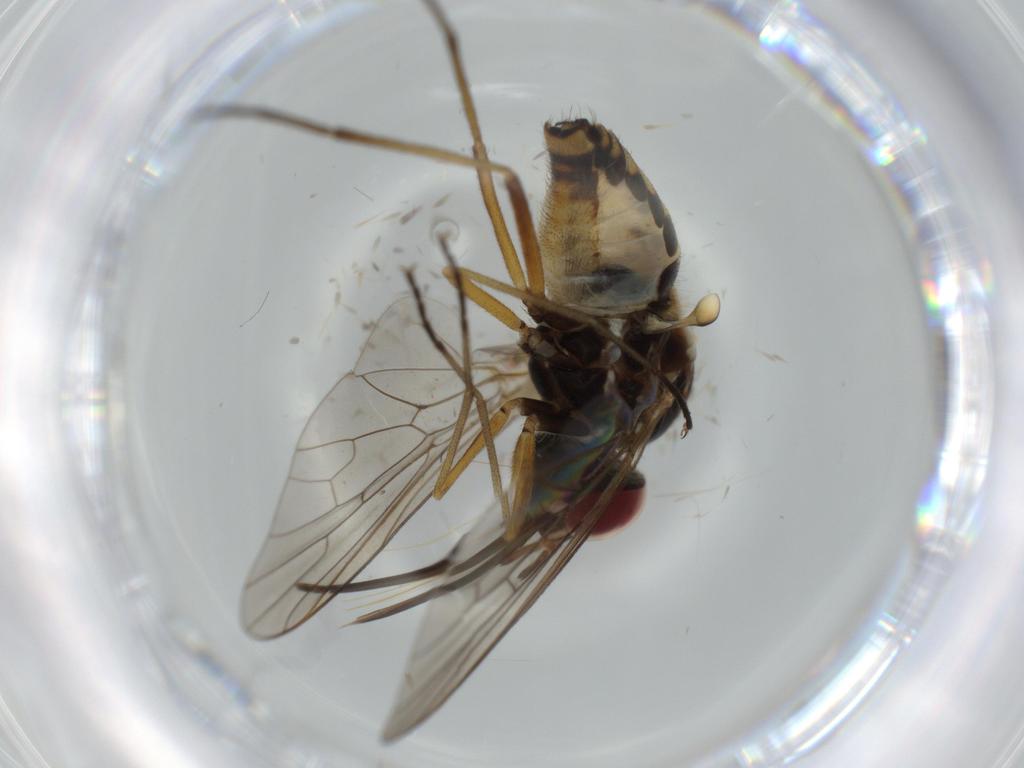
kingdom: Animalia
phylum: Arthropoda
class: Insecta
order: Diptera
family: Bombyliidae
